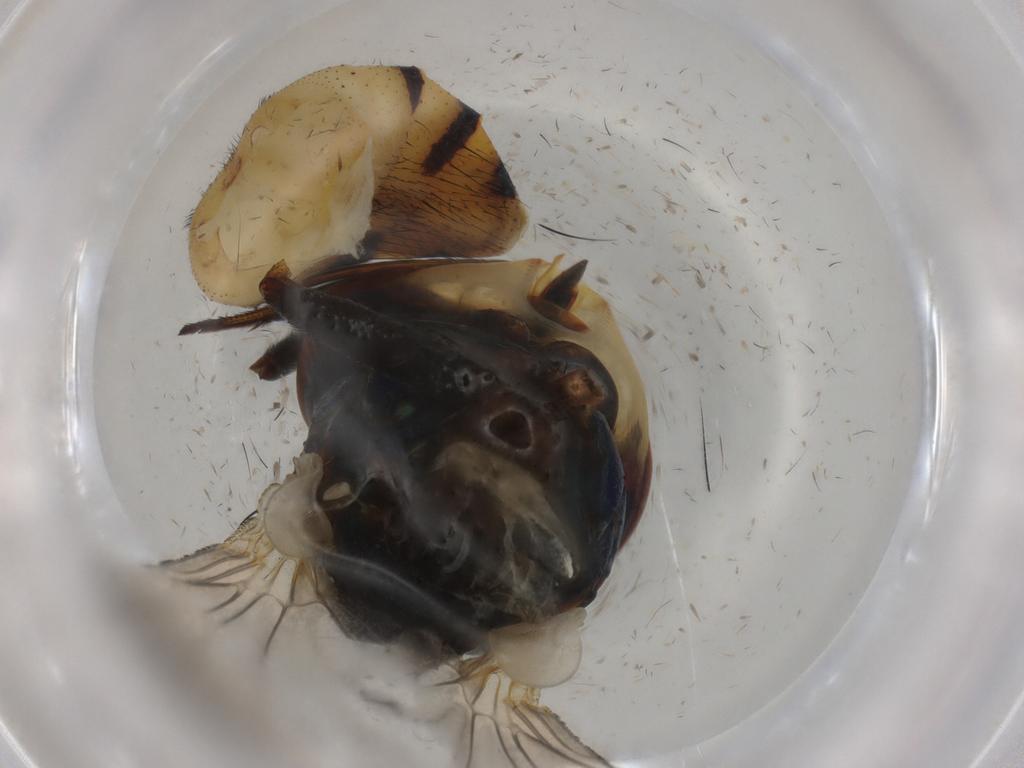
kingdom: Animalia
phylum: Arthropoda
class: Insecta
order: Diptera
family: Calliphoridae
